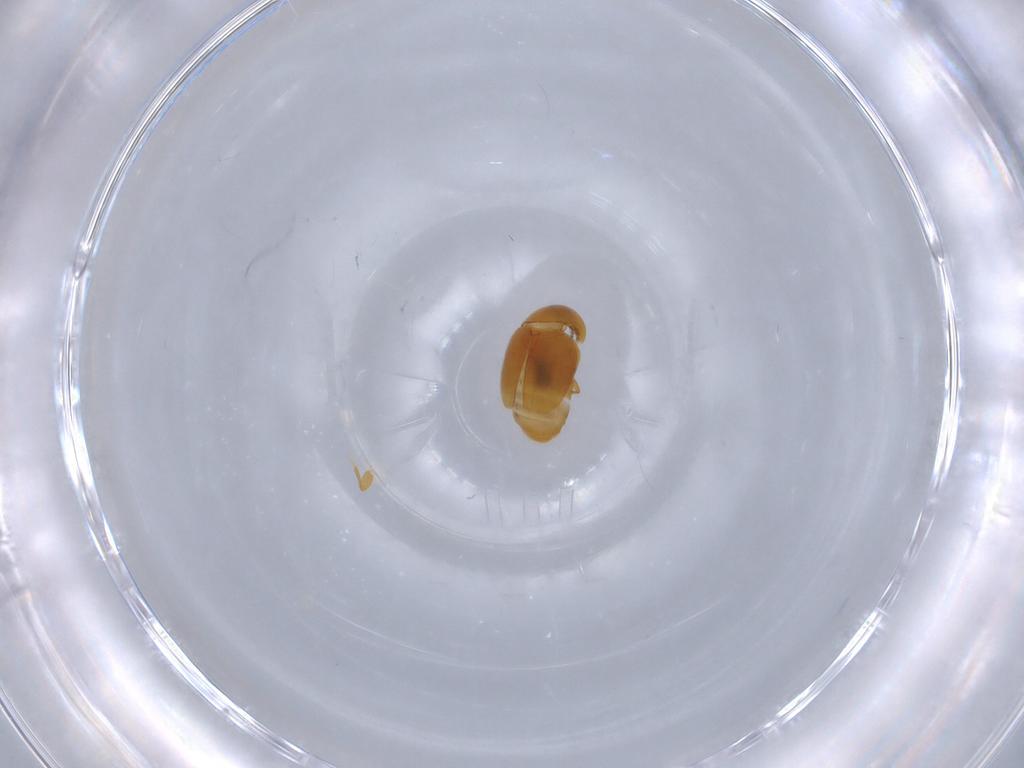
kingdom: Animalia
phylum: Arthropoda
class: Insecta
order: Coleoptera
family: Corylophidae
